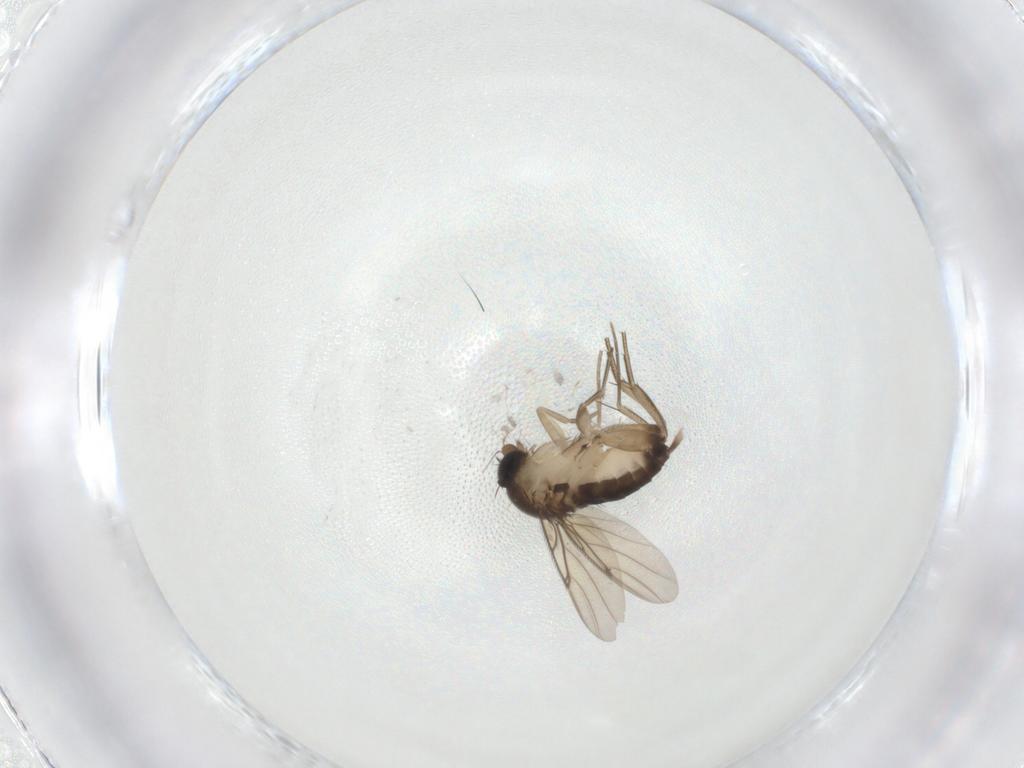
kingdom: Animalia
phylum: Arthropoda
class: Insecta
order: Diptera
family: Phoridae
